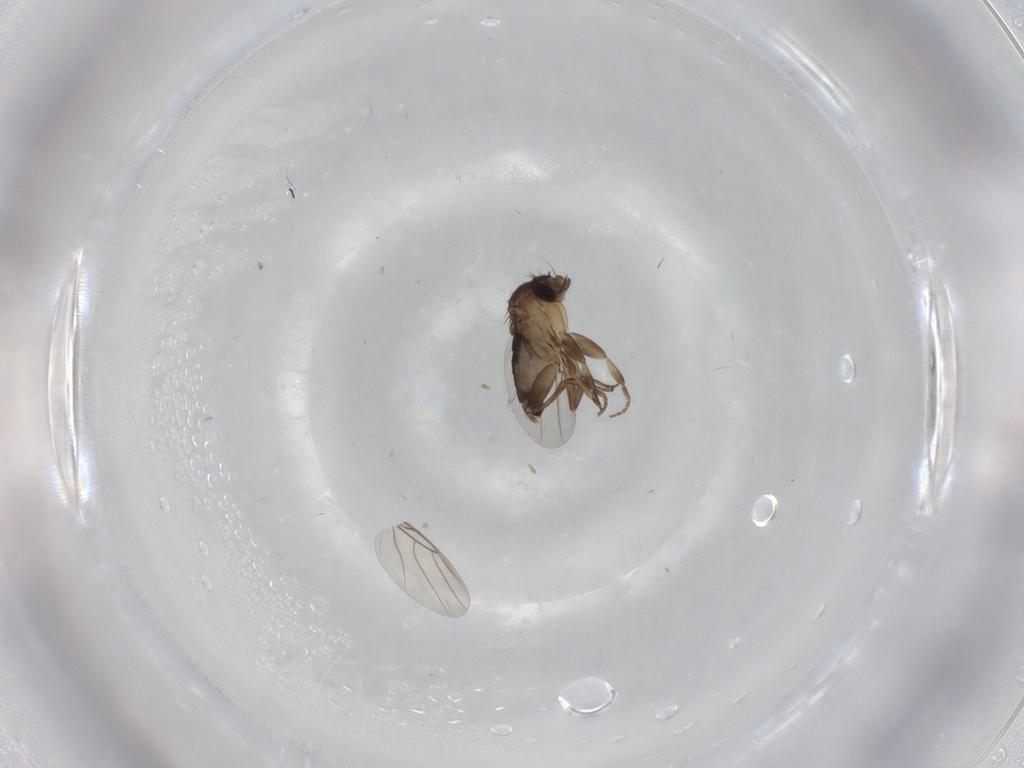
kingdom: Animalia
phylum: Arthropoda
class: Insecta
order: Diptera
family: Phoridae
